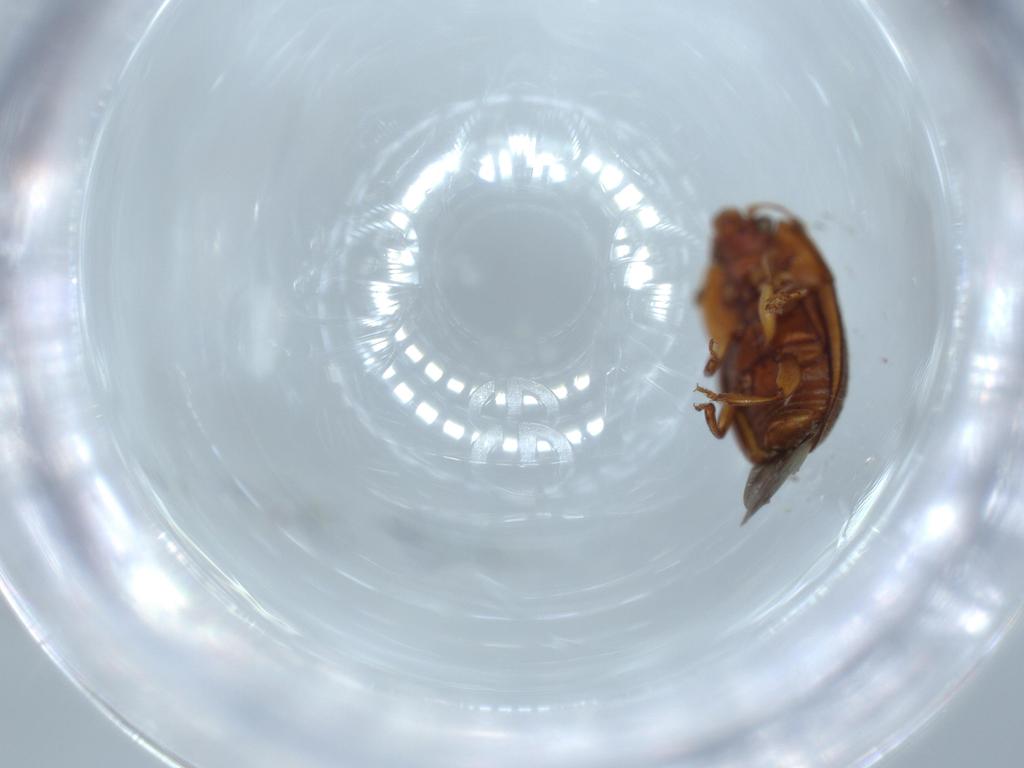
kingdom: Animalia
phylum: Arthropoda
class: Insecta
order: Coleoptera
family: Nitidulidae
